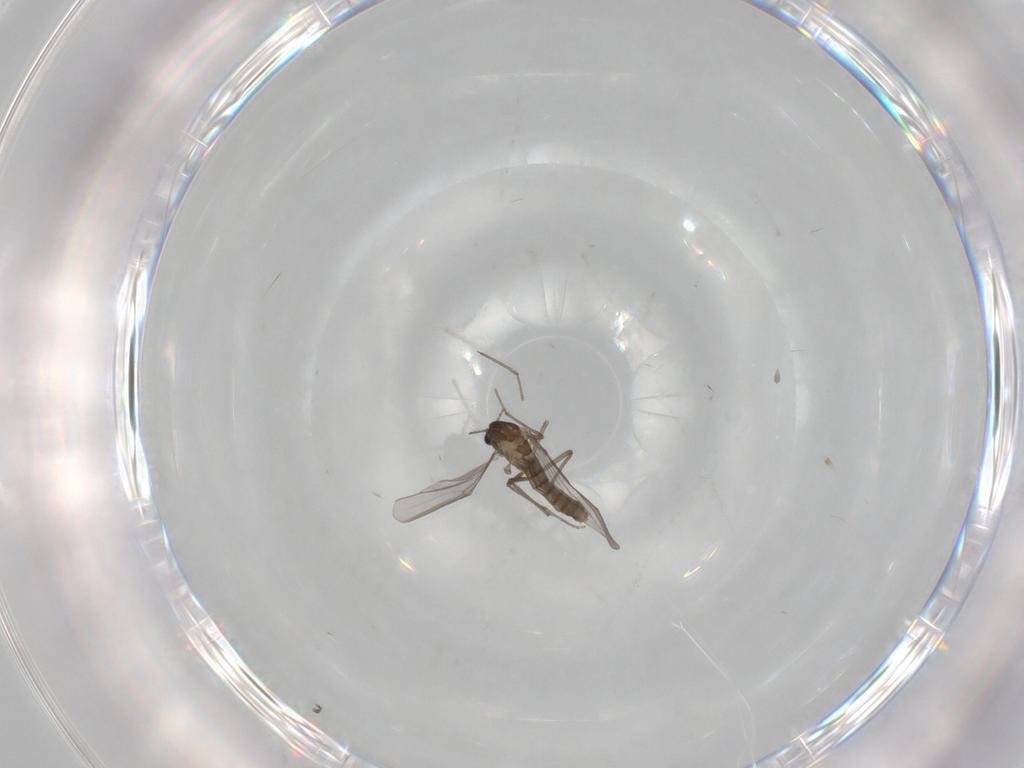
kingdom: Animalia
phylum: Arthropoda
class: Insecta
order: Diptera
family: Chironomidae
